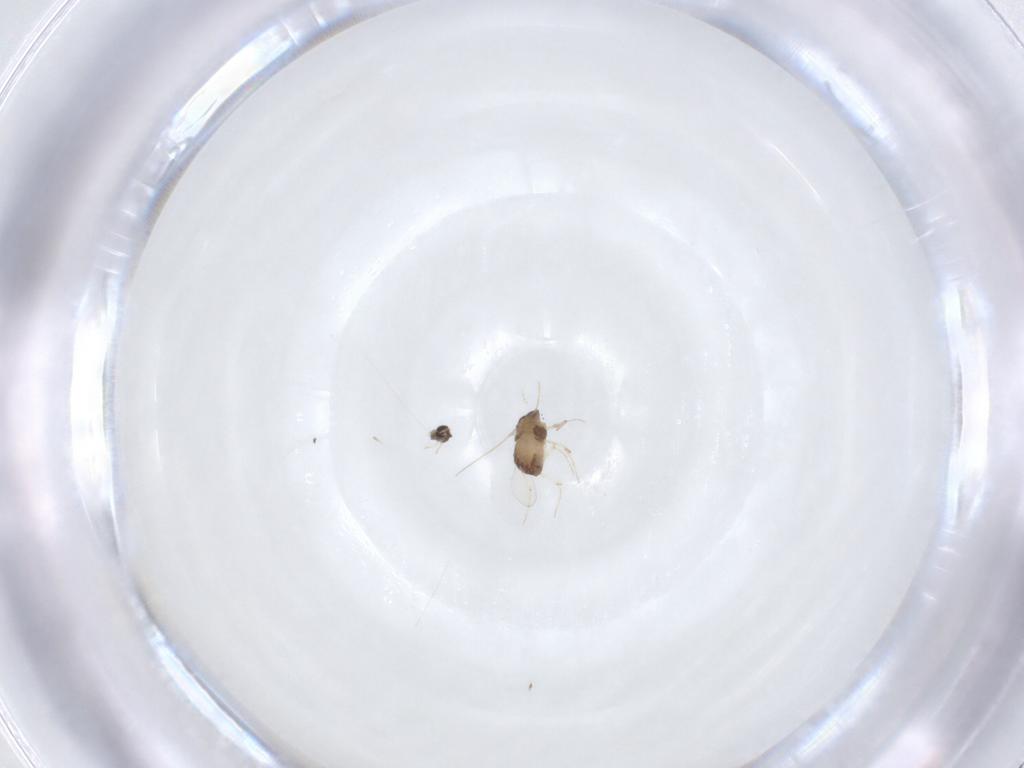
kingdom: Animalia
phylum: Arthropoda
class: Insecta
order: Diptera
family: Chironomidae
